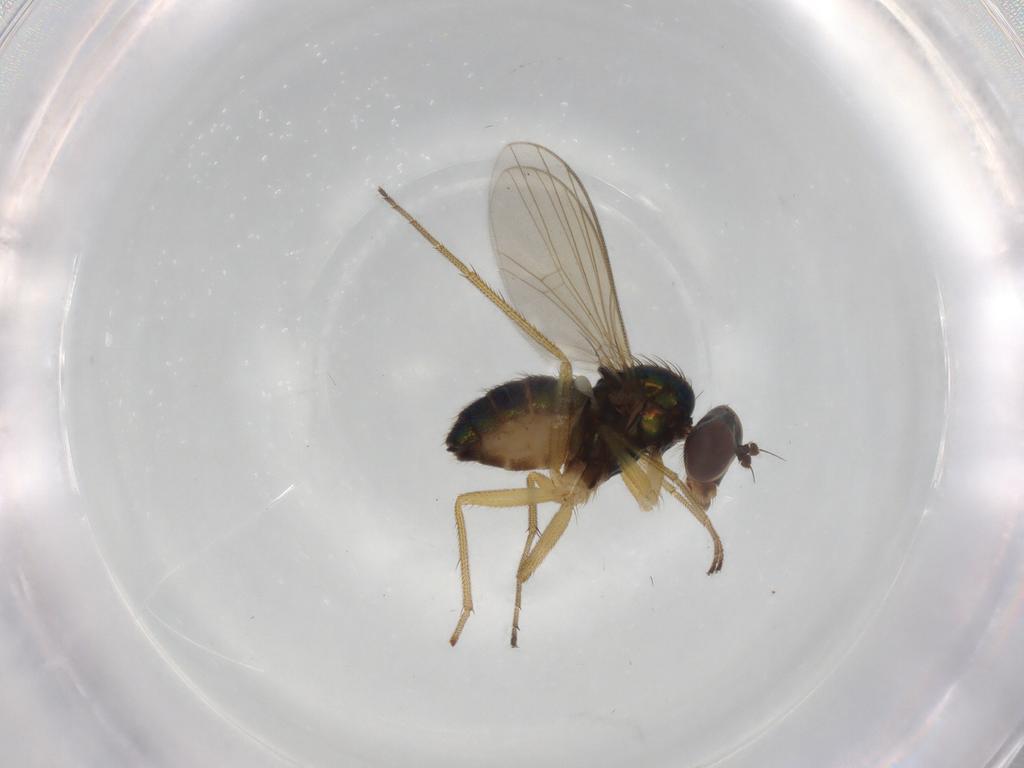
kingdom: Animalia
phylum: Arthropoda
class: Insecta
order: Diptera
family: Dolichopodidae
